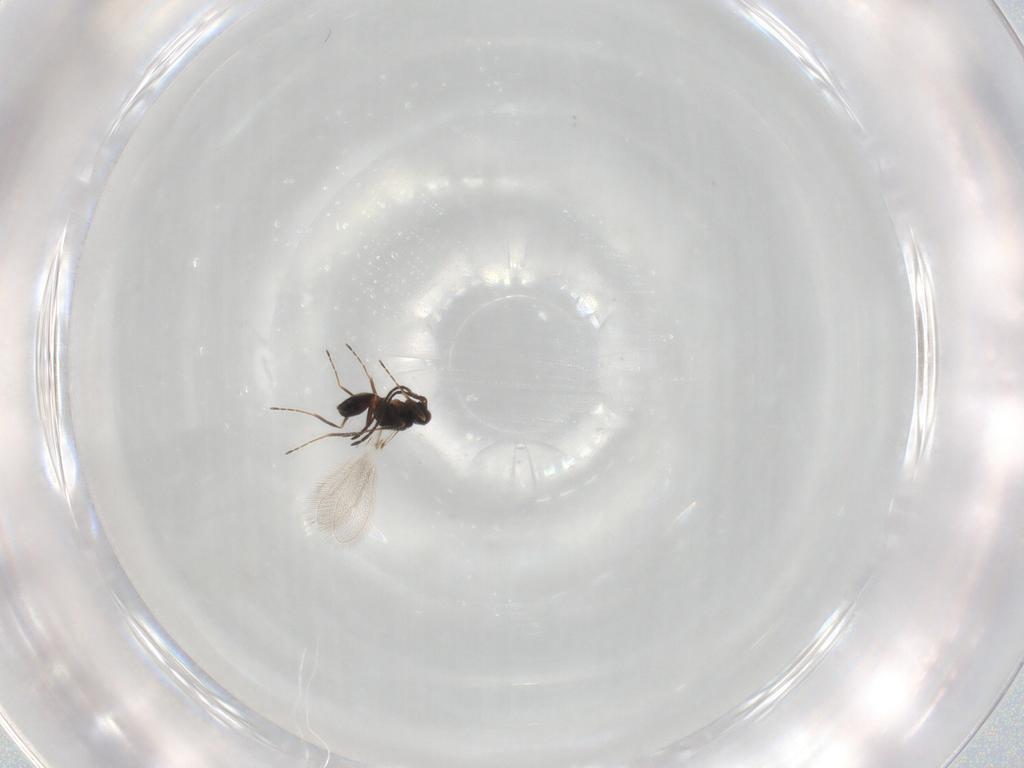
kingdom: Animalia
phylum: Arthropoda
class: Insecta
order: Hymenoptera
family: Mymaridae
